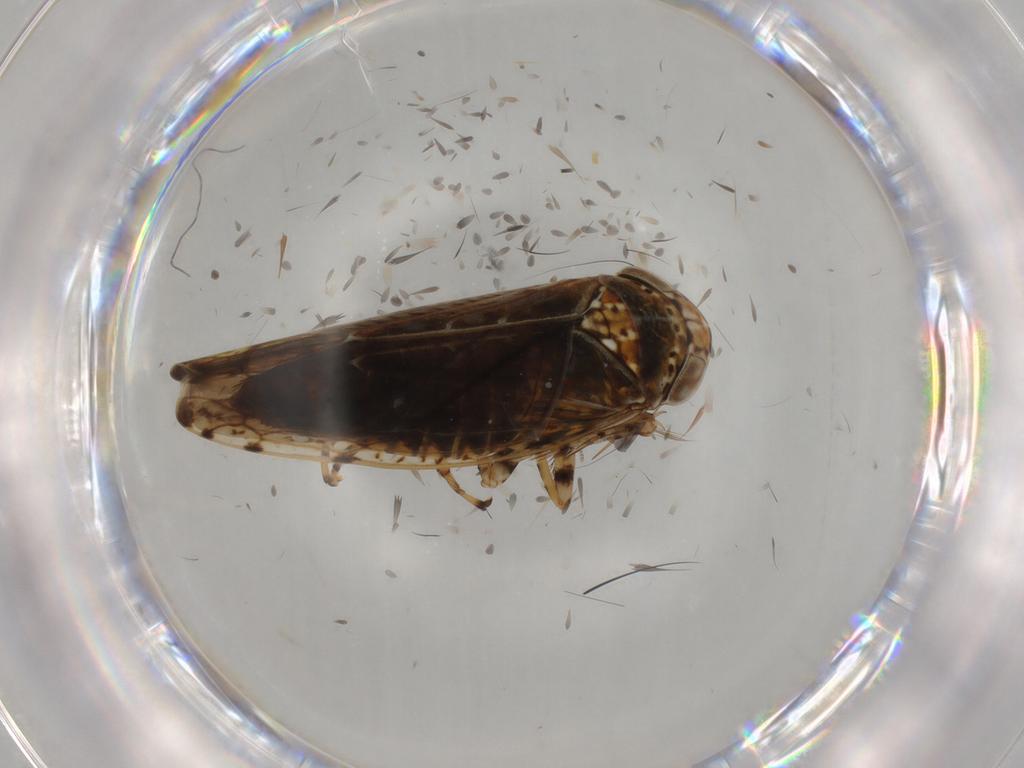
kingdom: Animalia
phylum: Arthropoda
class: Insecta
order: Hemiptera
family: Cicadellidae
